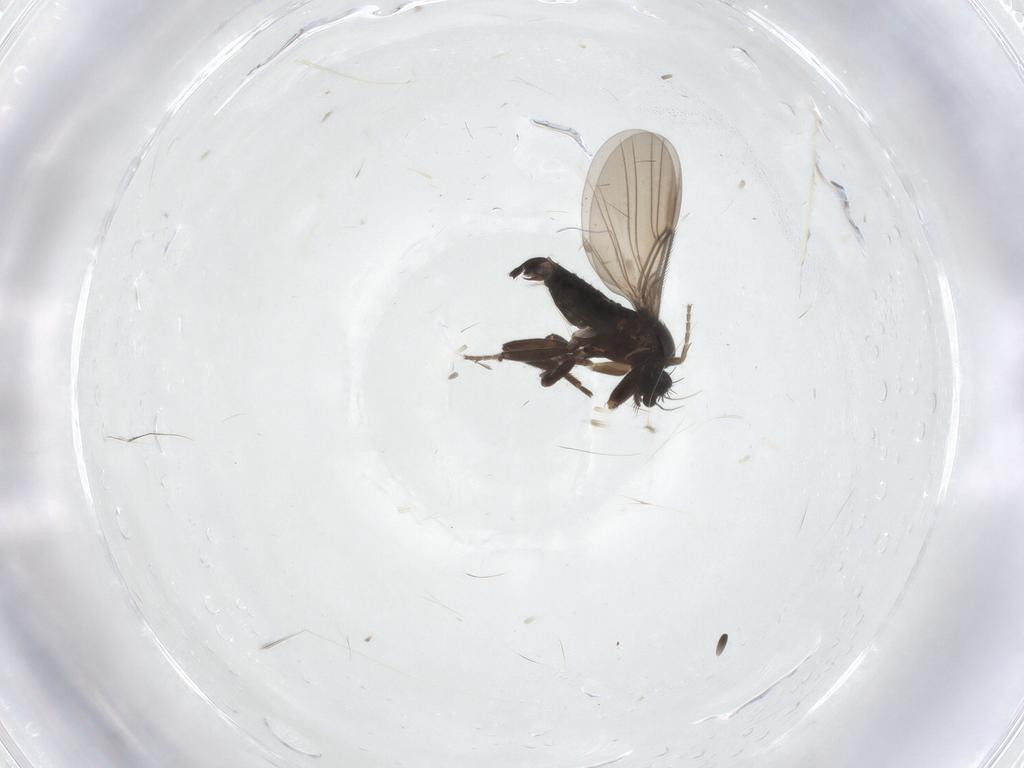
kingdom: Animalia
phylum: Arthropoda
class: Insecta
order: Diptera
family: Phoridae
